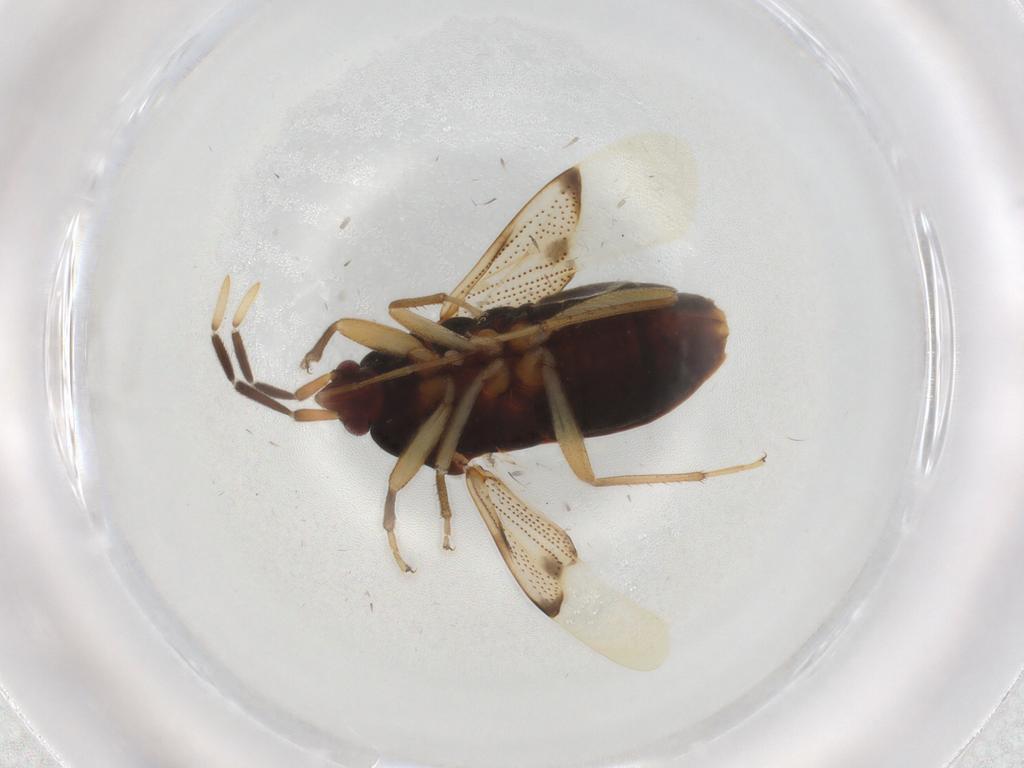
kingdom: Animalia
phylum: Arthropoda
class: Insecta
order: Hemiptera
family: Rhyparochromidae
